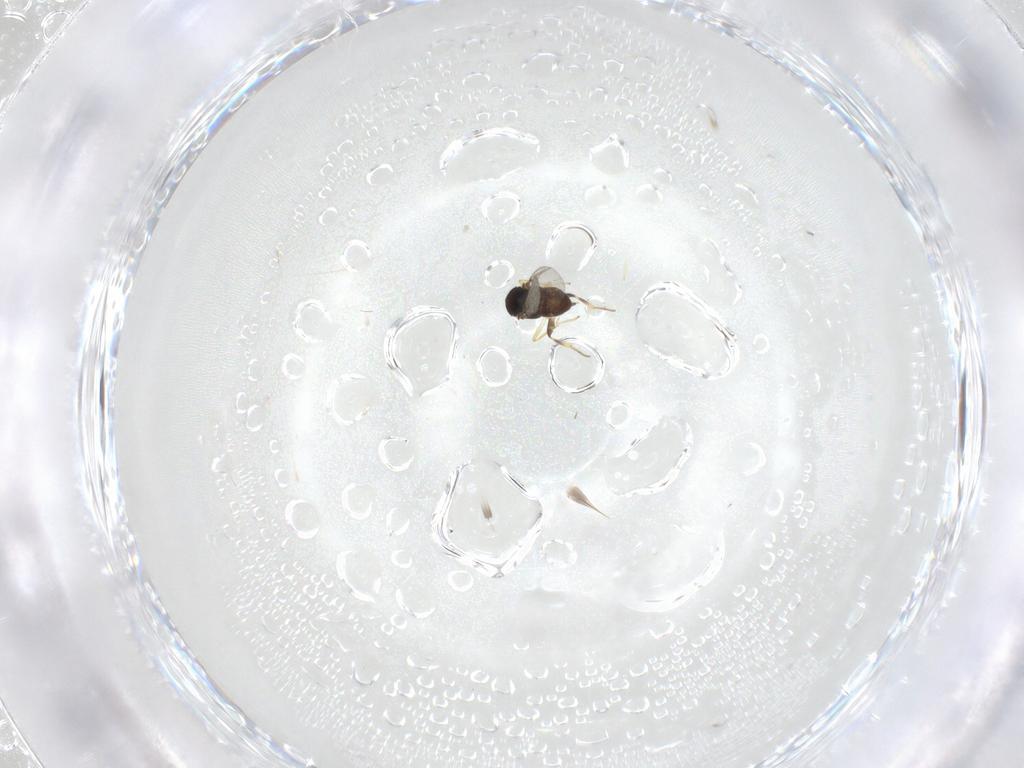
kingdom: Animalia
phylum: Arthropoda
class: Insecta
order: Hymenoptera
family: Encyrtidae
